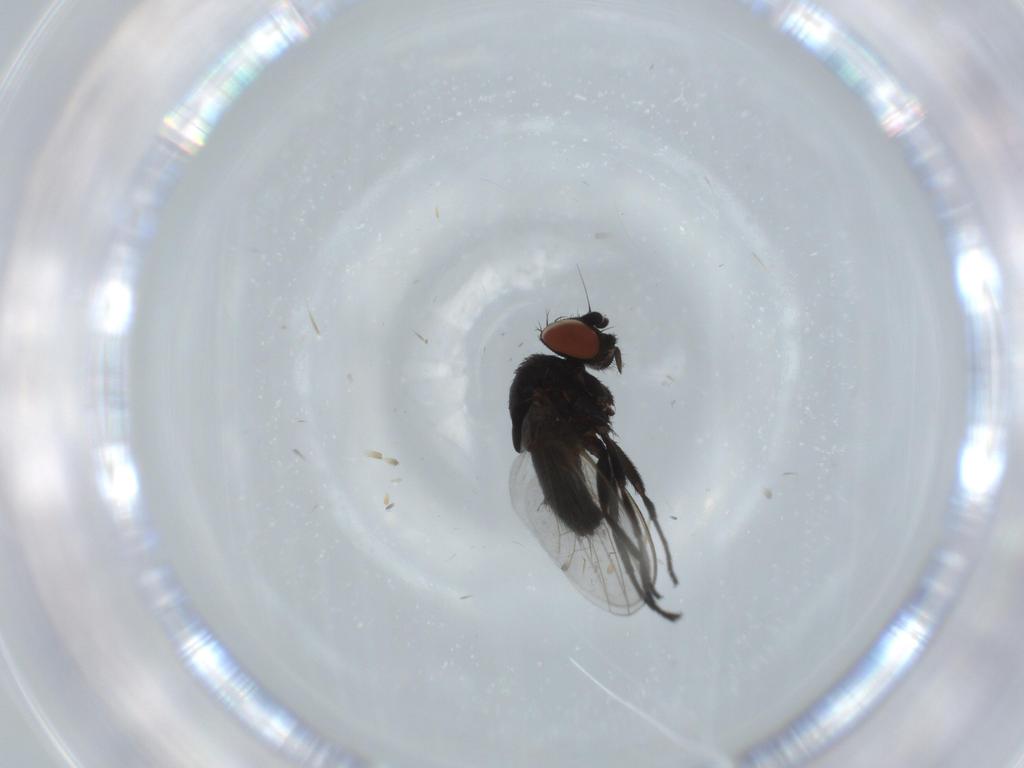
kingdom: Animalia
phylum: Arthropoda
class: Insecta
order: Diptera
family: Milichiidae
